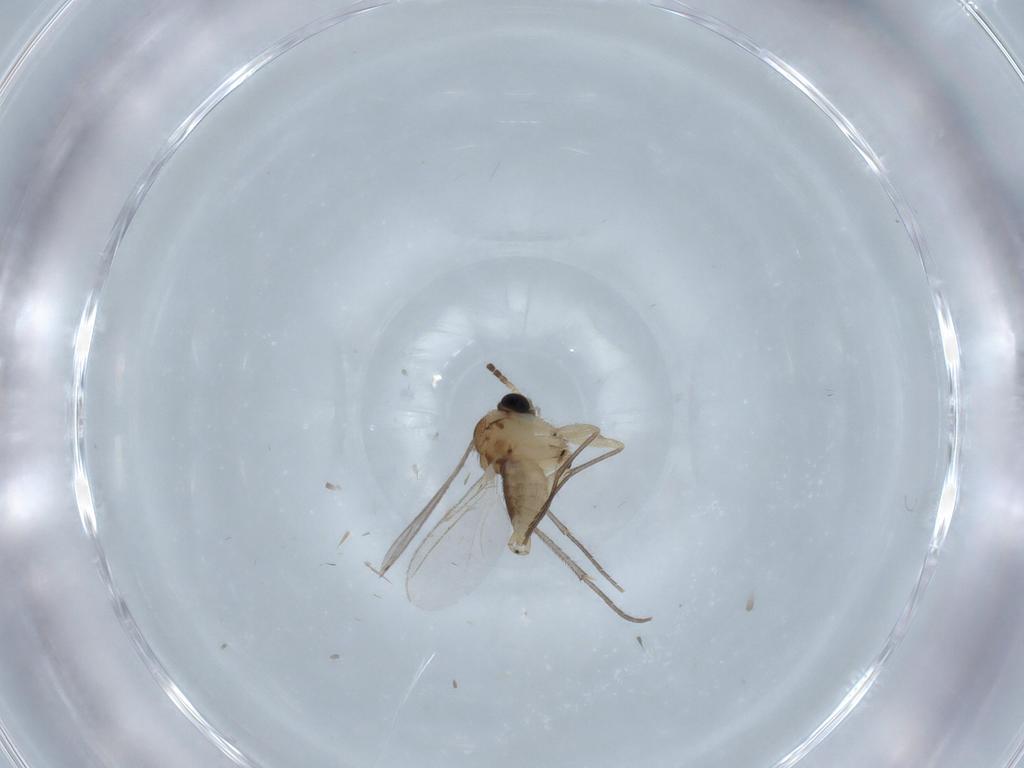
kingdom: Animalia
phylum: Arthropoda
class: Insecta
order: Diptera
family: Sciaridae
